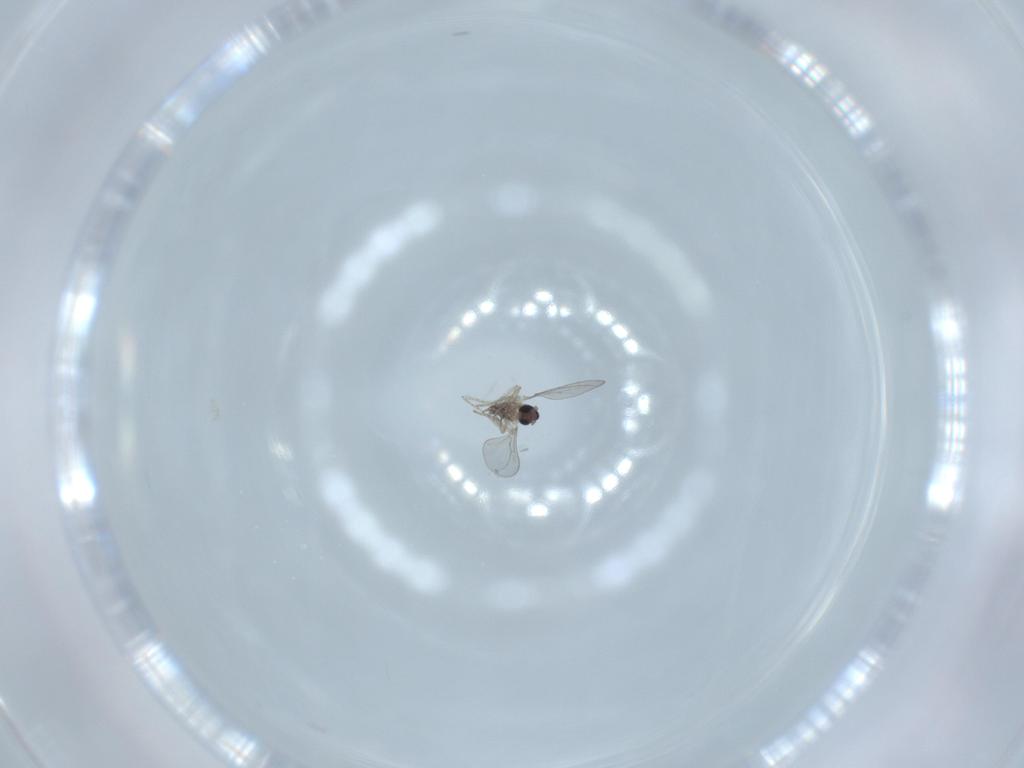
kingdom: Animalia
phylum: Arthropoda
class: Insecta
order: Diptera
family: Cecidomyiidae
